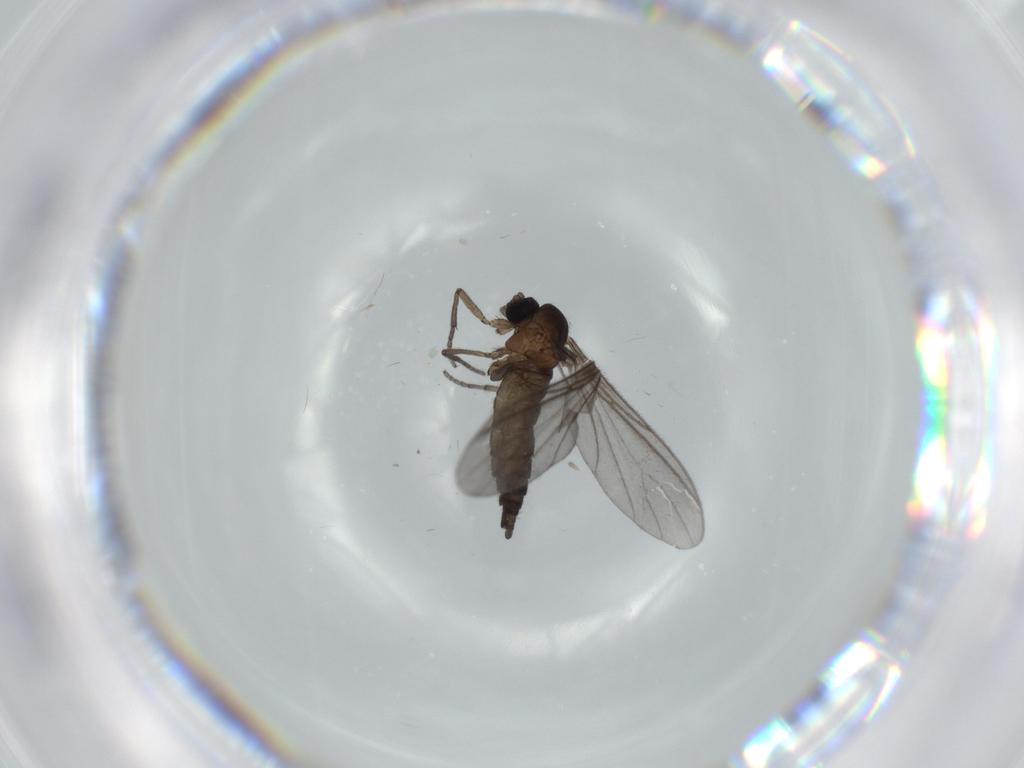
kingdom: Animalia
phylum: Arthropoda
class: Insecta
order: Diptera
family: Sciaridae
